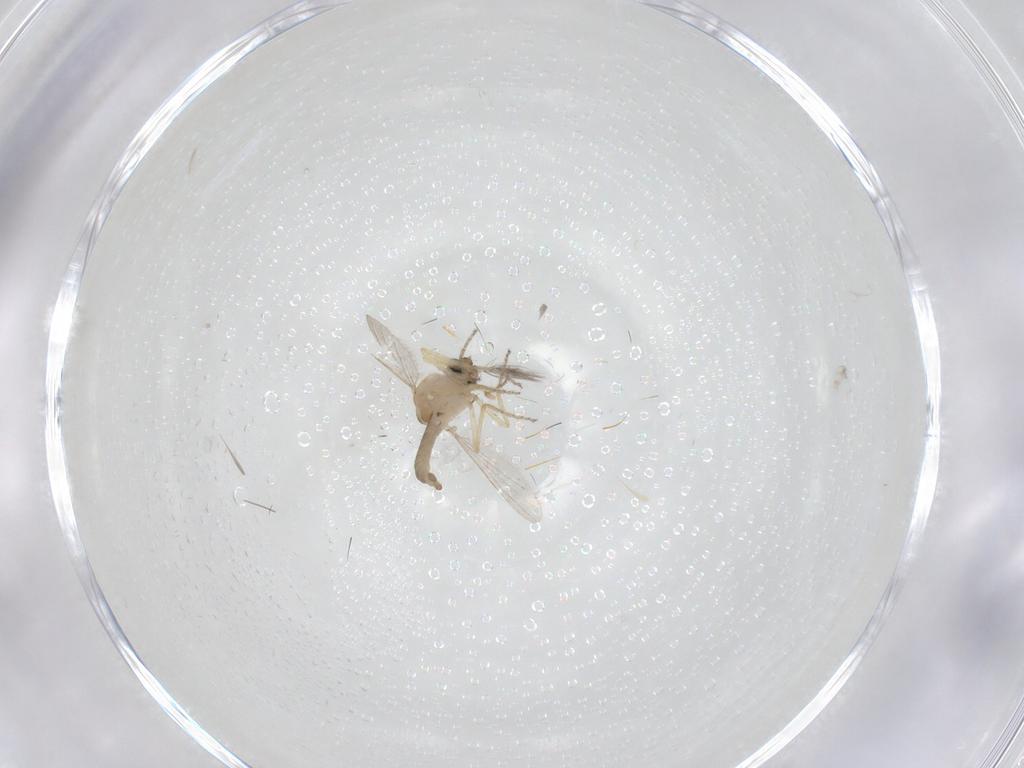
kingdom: Animalia
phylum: Arthropoda
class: Insecta
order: Diptera
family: Ceratopogonidae
